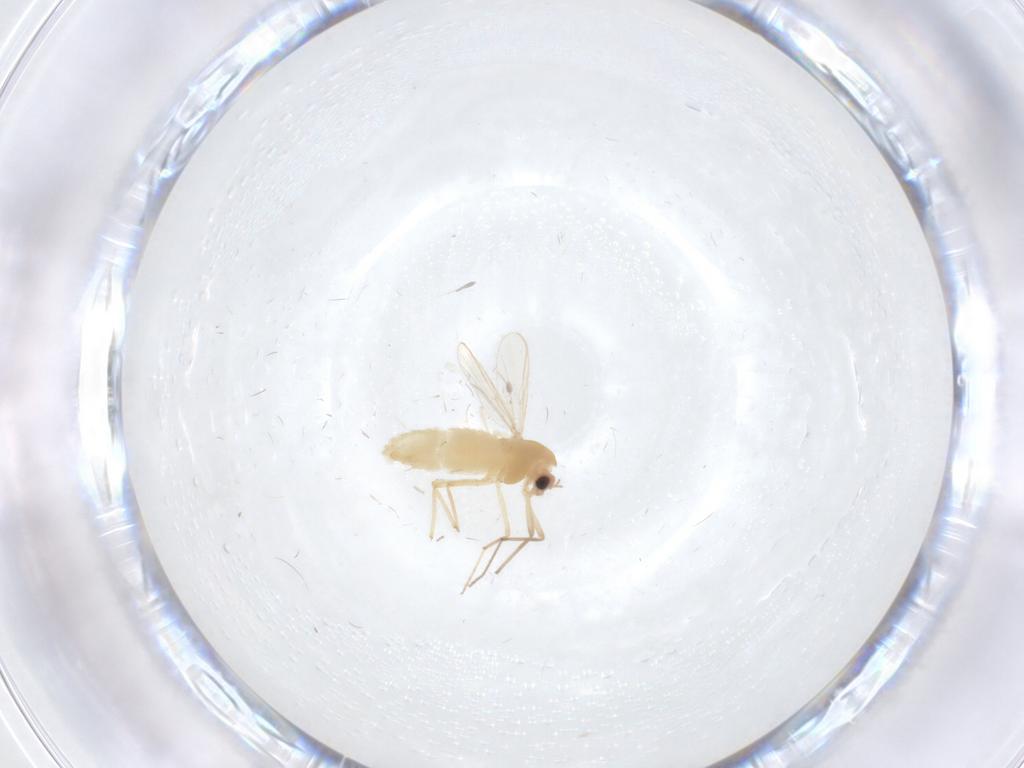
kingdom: Animalia
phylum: Arthropoda
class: Insecta
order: Diptera
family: Chironomidae
